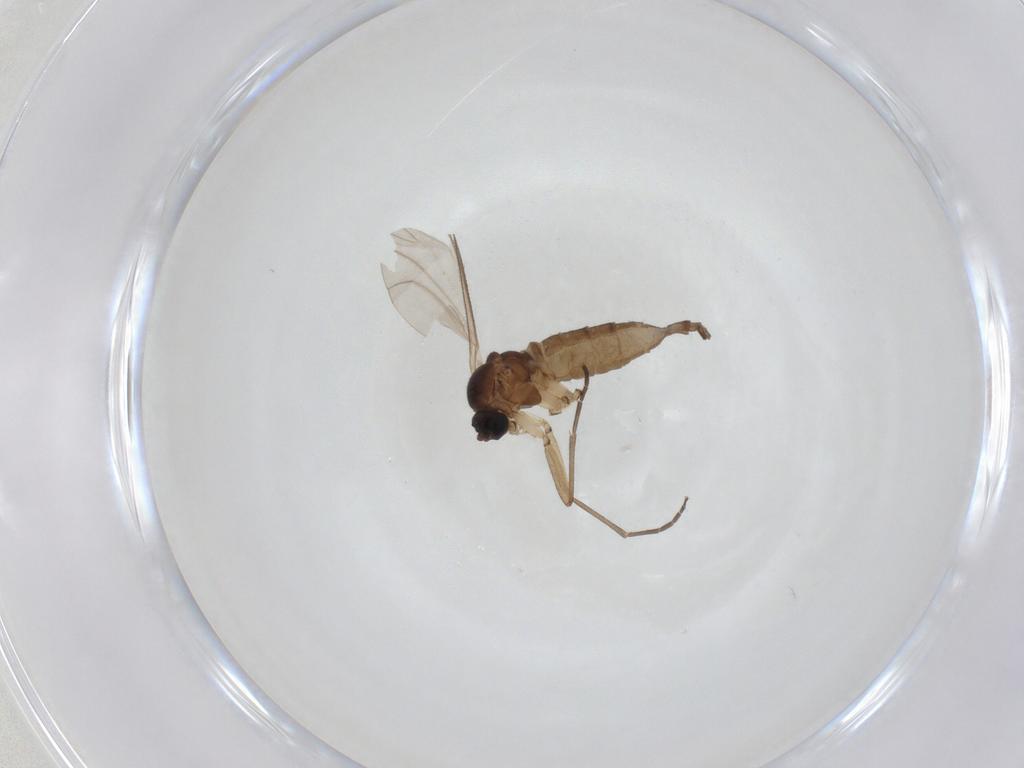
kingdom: Animalia
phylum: Arthropoda
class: Insecta
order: Diptera
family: Sciaridae
